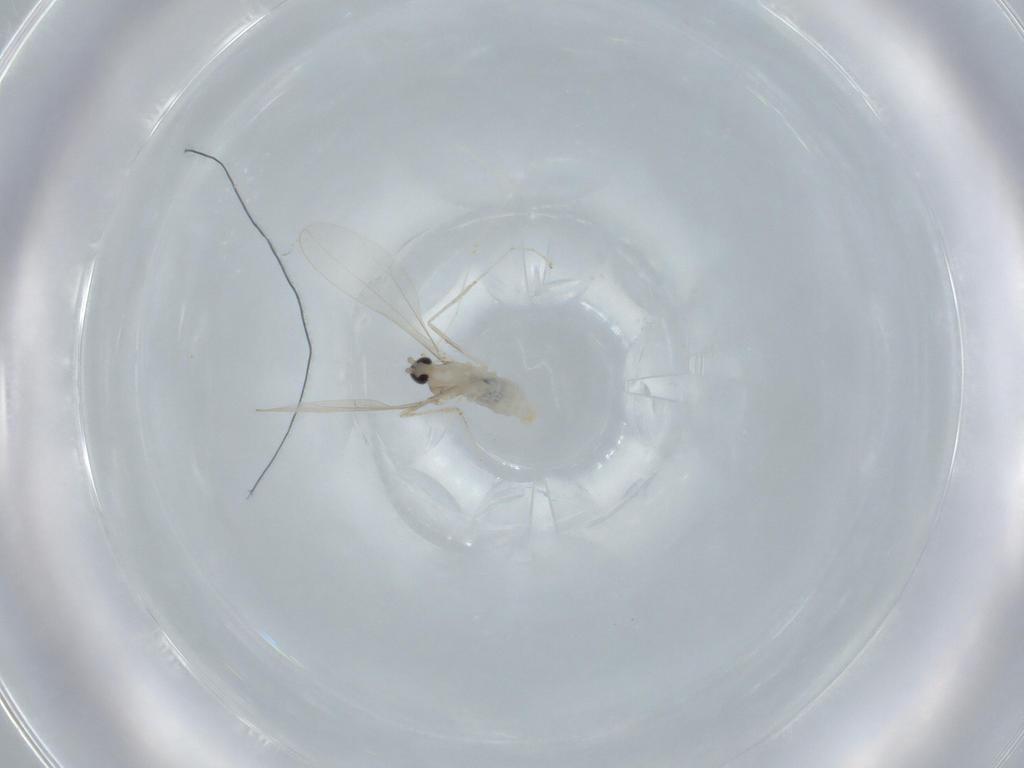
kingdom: Animalia
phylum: Arthropoda
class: Insecta
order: Diptera
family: Cecidomyiidae
